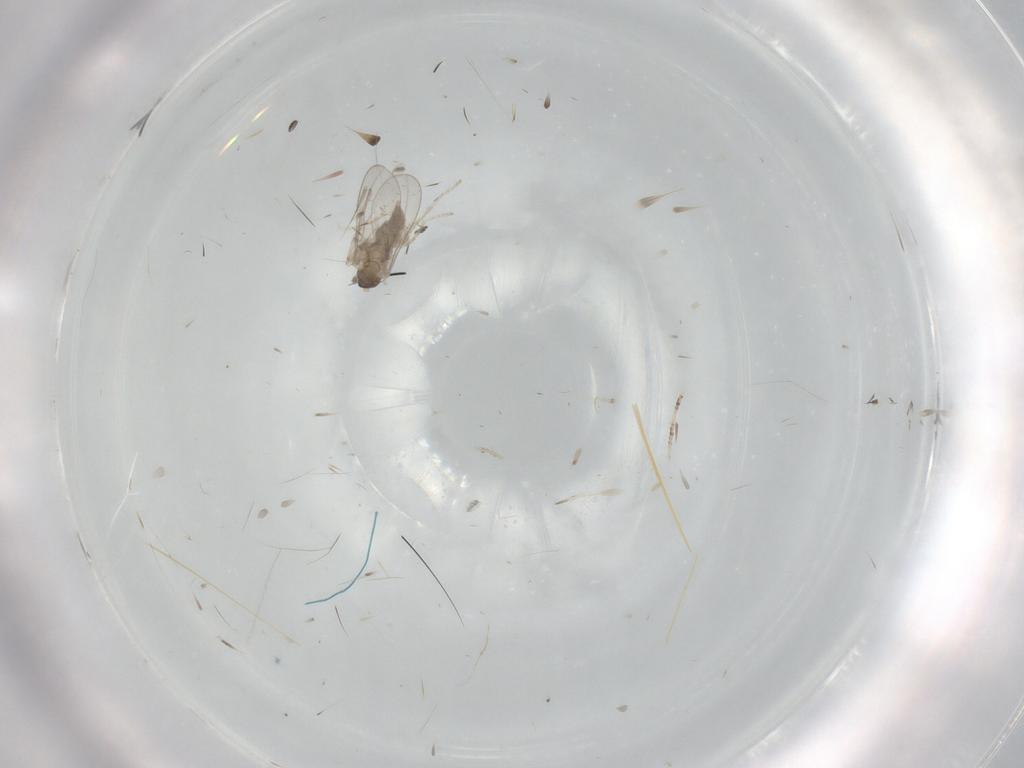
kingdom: Animalia
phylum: Arthropoda
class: Insecta
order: Diptera
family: Cecidomyiidae
